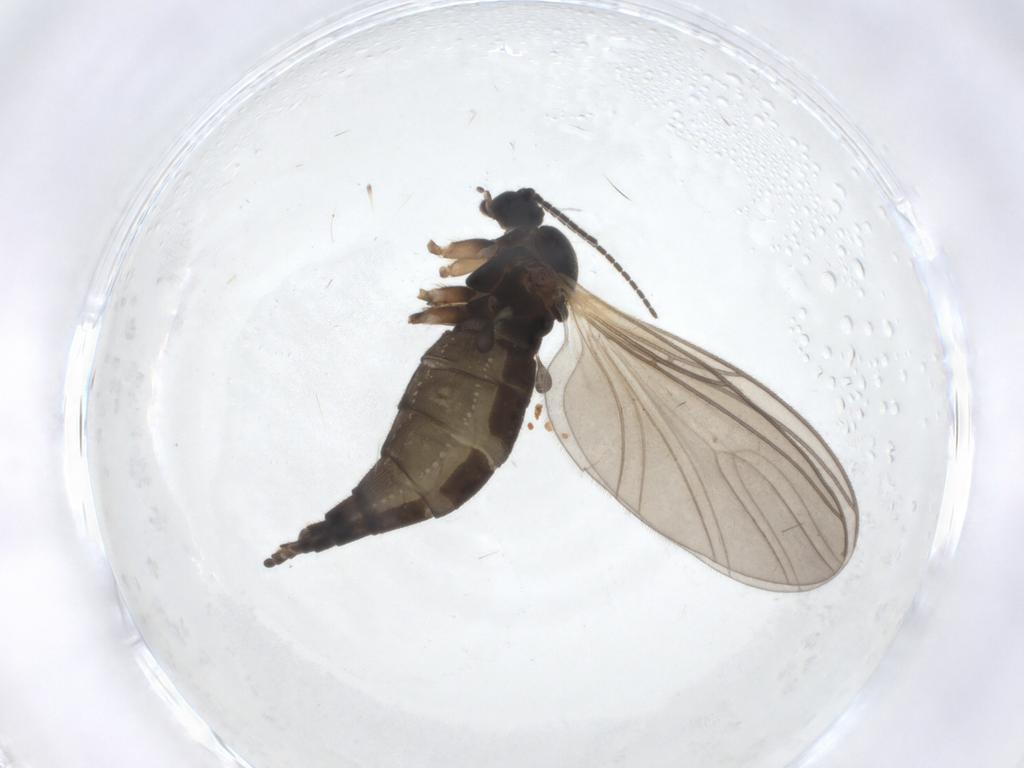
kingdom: Animalia
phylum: Arthropoda
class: Insecta
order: Diptera
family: Sciaridae
